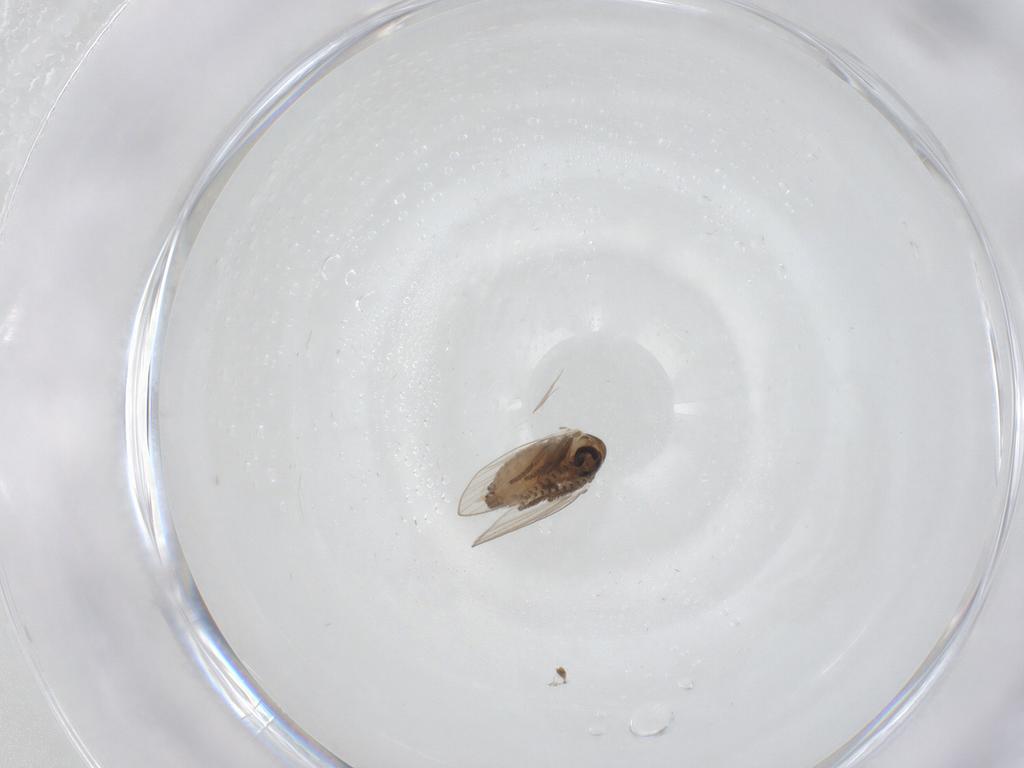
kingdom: Animalia
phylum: Arthropoda
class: Insecta
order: Diptera
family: Psychodidae
